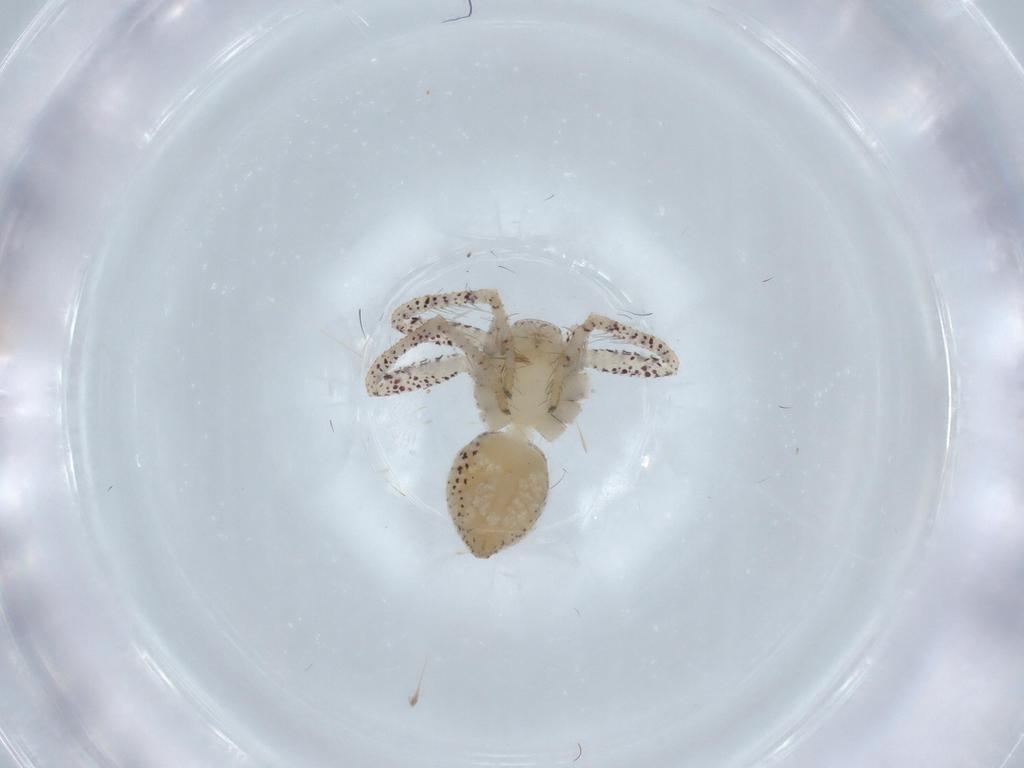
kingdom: Animalia
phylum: Arthropoda
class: Arachnida
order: Araneae
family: Philodromidae
